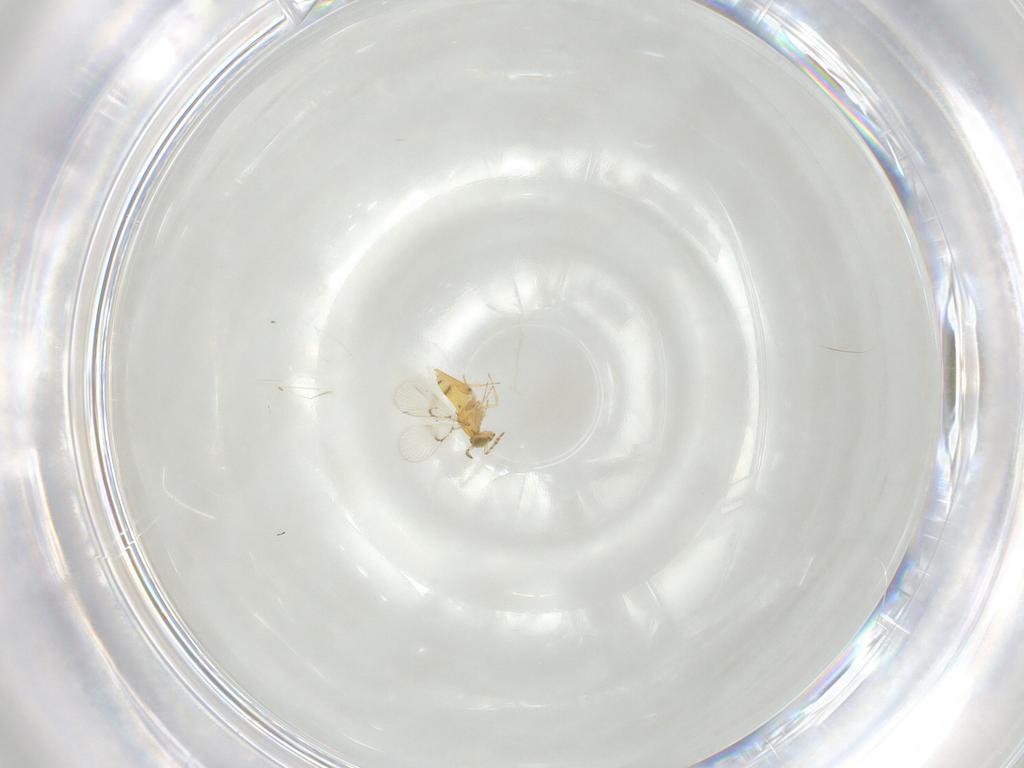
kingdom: Animalia
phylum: Arthropoda
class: Insecta
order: Hymenoptera
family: Trichogrammatidae
